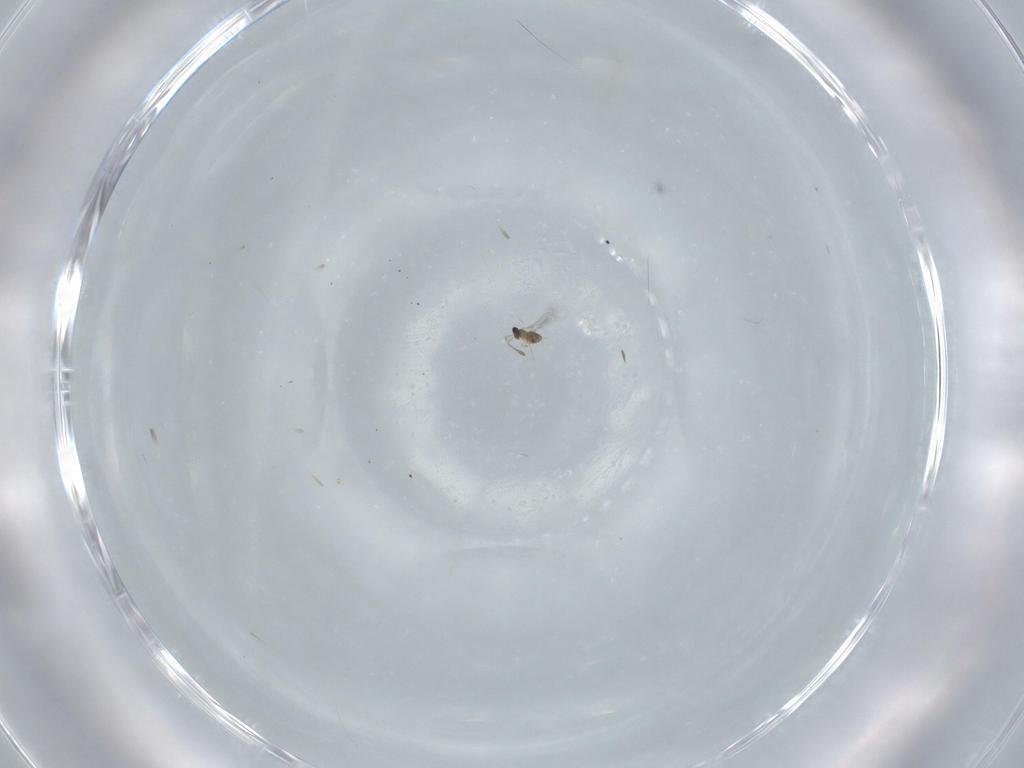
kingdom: Animalia
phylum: Arthropoda
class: Insecta
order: Hymenoptera
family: Mymaridae
